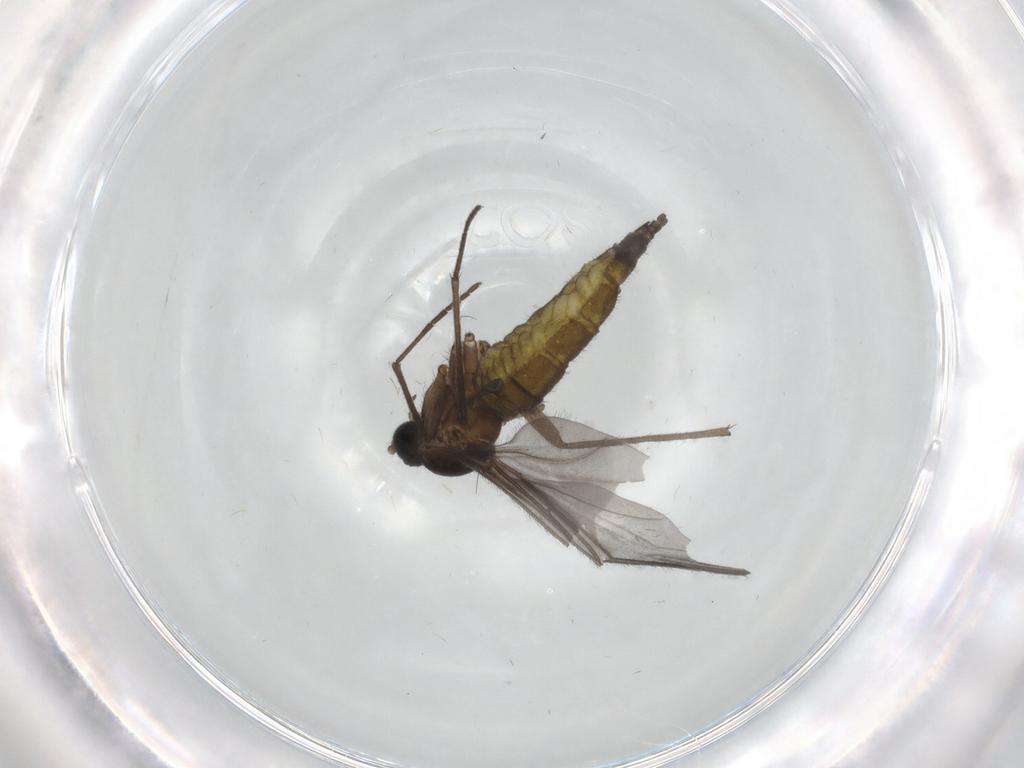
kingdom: Animalia
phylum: Arthropoda
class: Insecta
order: Diptera
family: Sciaridae
